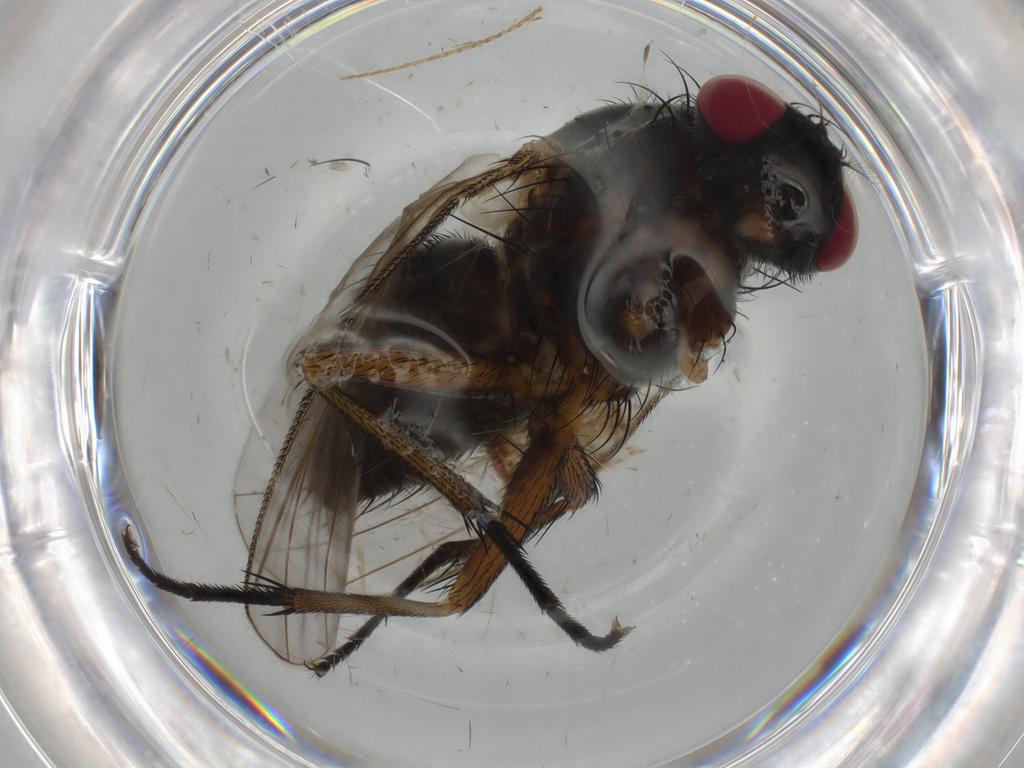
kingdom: Animalia
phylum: Arthropoda
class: Insecta
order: Diptera
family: Muscidae
